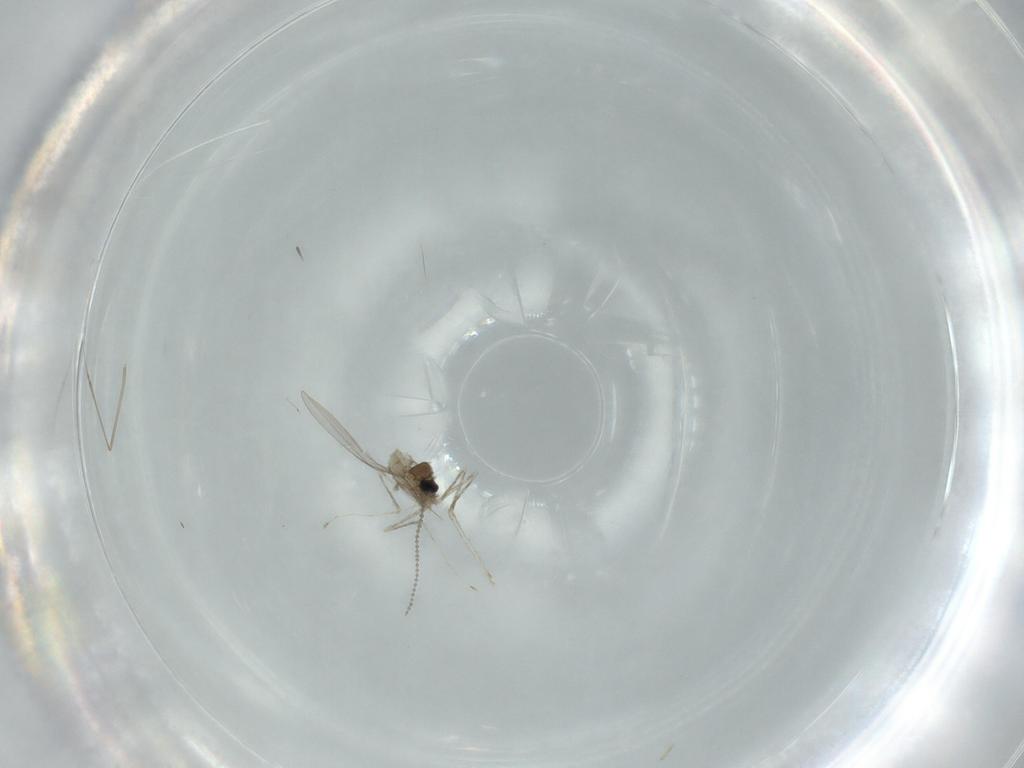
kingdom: Animalia
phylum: Arthropoda
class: Insecta
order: Diptera
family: Cecidomyiidae
